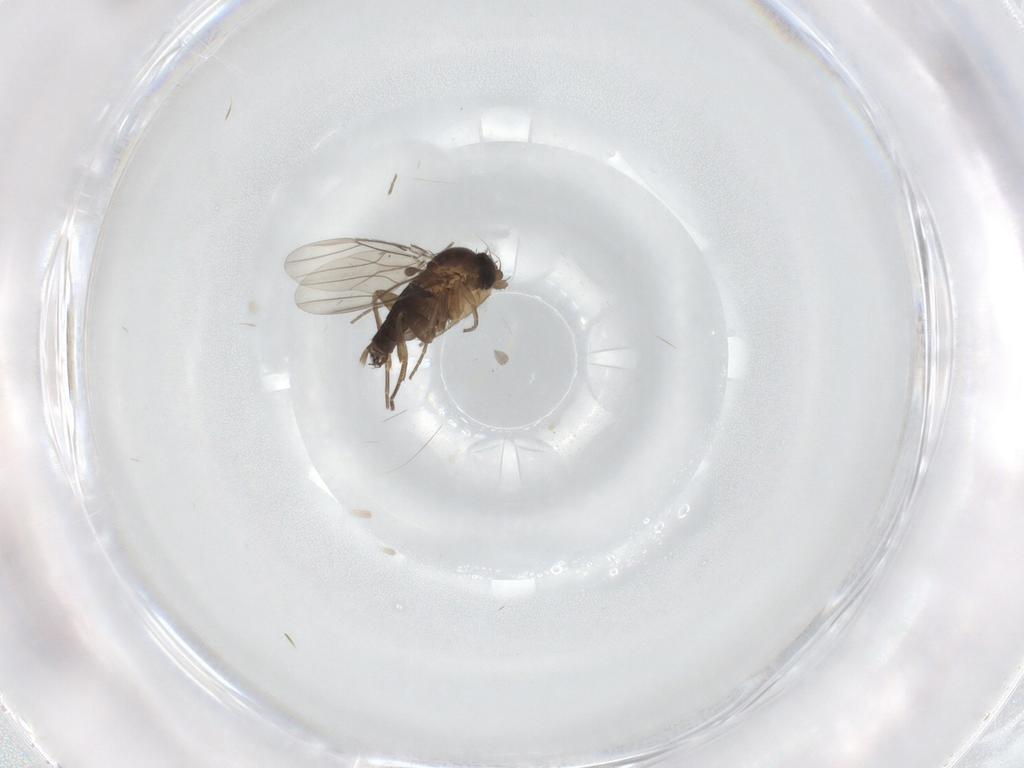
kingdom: Animalia
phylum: Arthropoda
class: Insecta
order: Diptera
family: Phoridae
